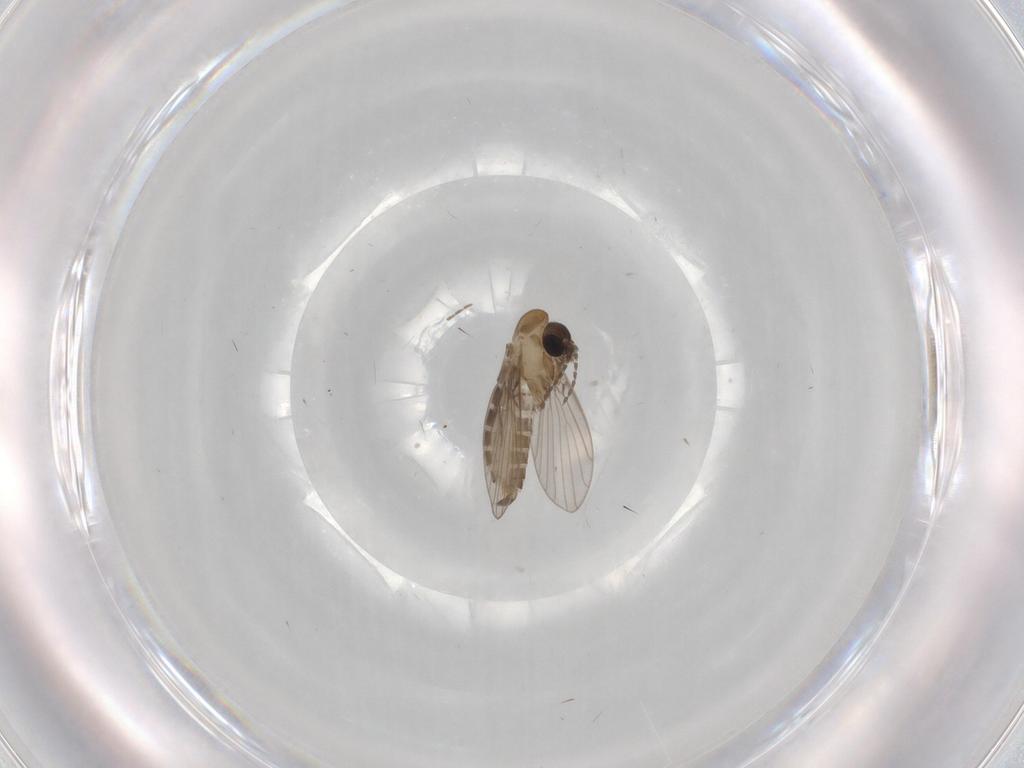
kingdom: Animalia
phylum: Arthropoda
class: Insecta
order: Diptera
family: Psychodidae
